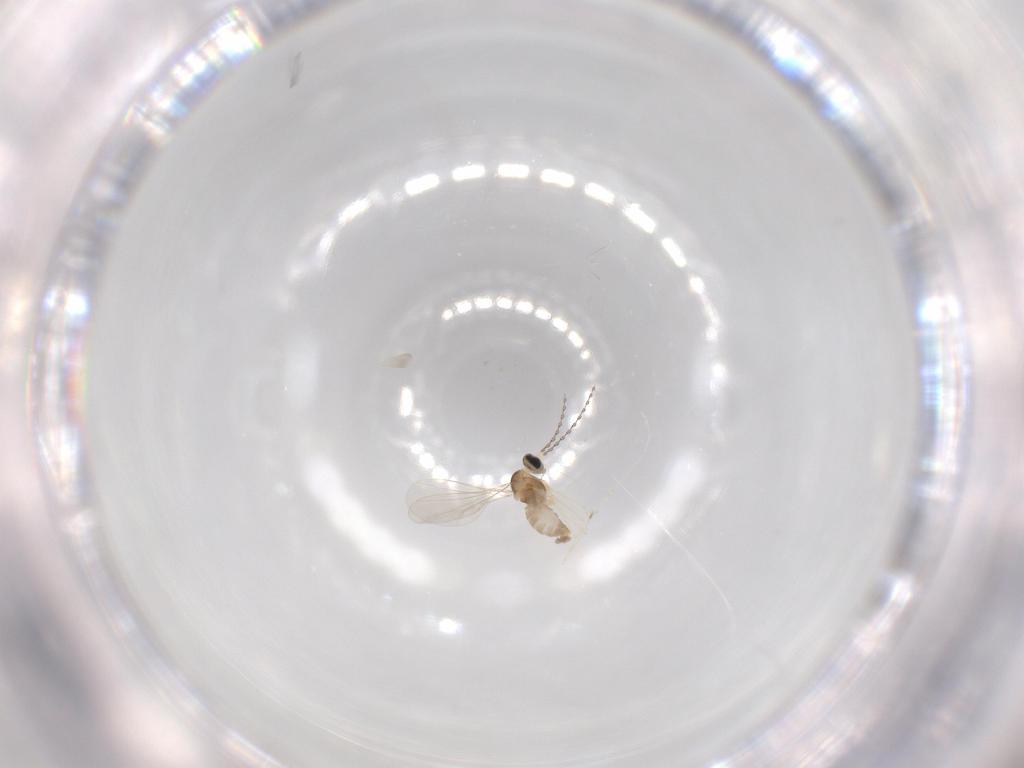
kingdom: Animalia
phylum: Arthropoda
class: Insecta
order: Diptera
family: Cecidomyiidae
